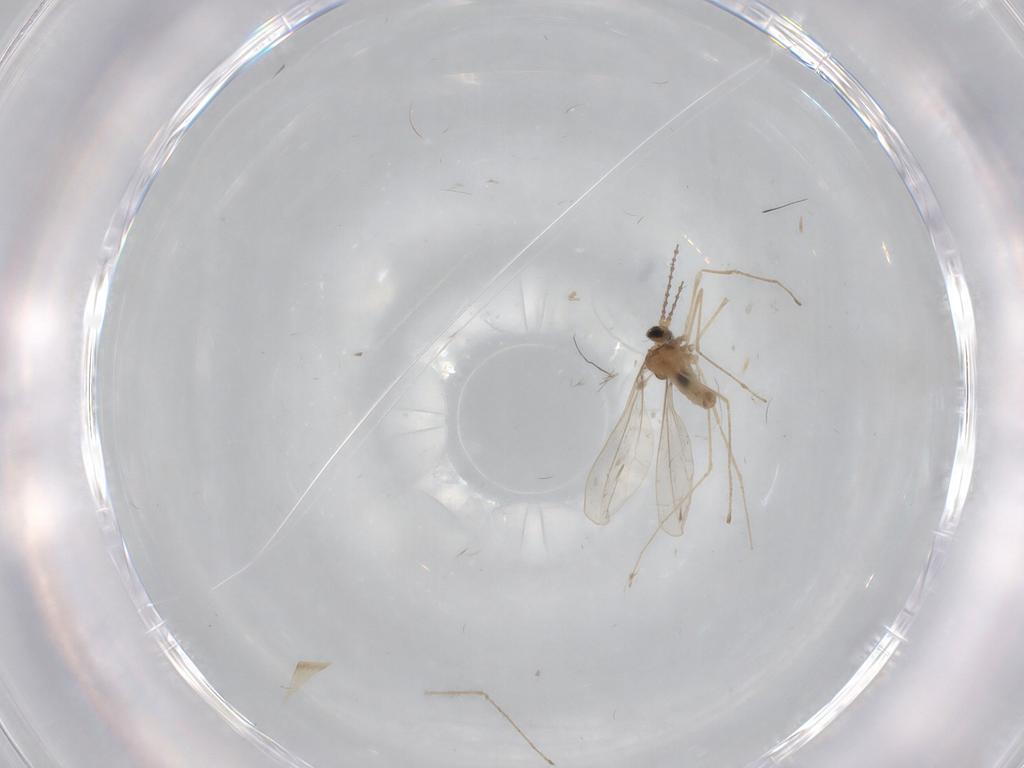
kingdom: Animalia
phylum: Arthropoda
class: Insecta
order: Diptera
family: Cecidomyiidae
